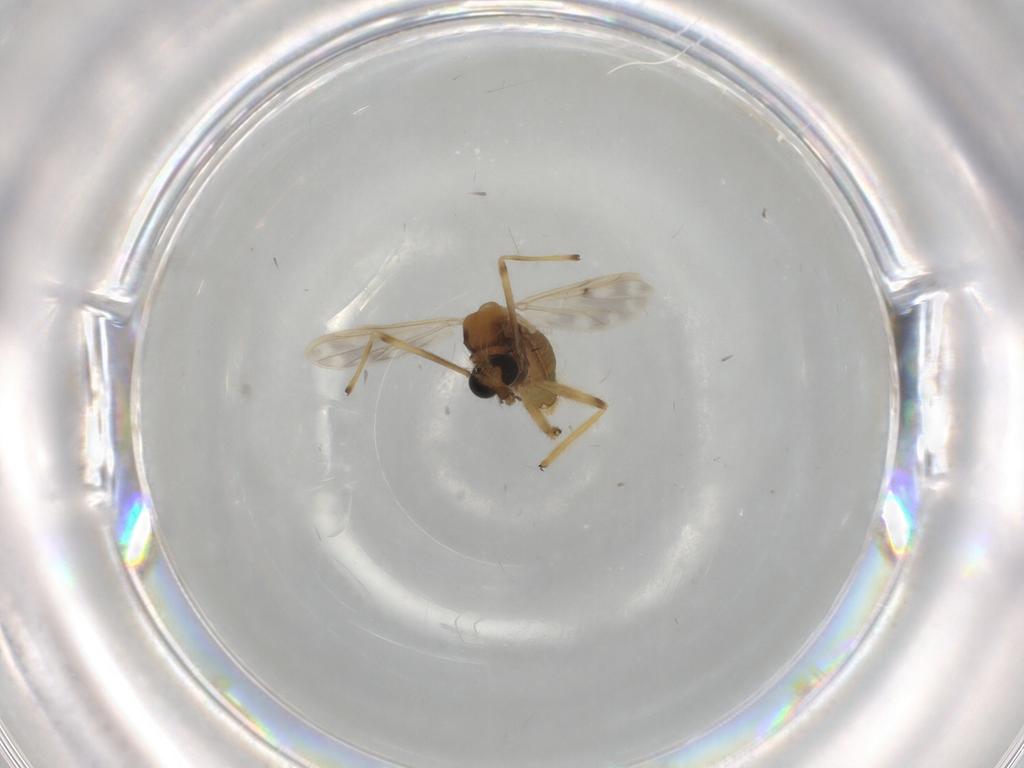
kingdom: Animalia
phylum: Arthropoda
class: Insecta
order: Diptera
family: Chironomidae
